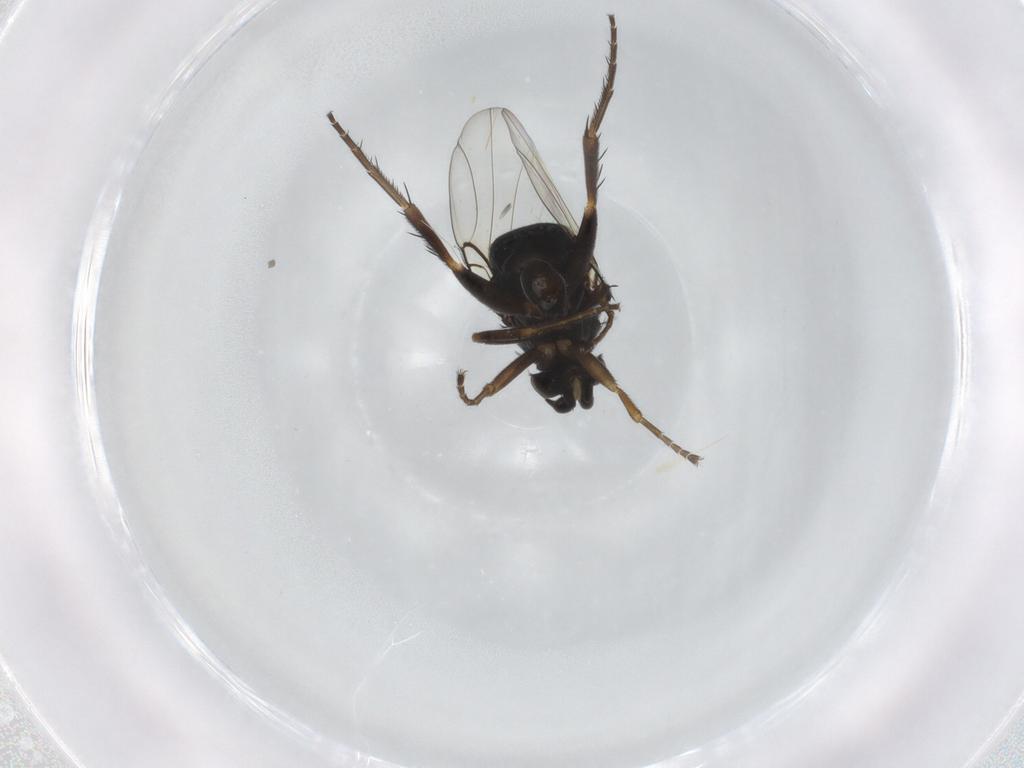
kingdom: Animalia
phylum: Arthropoda
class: Insecta
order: Diptera
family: Phoridae
